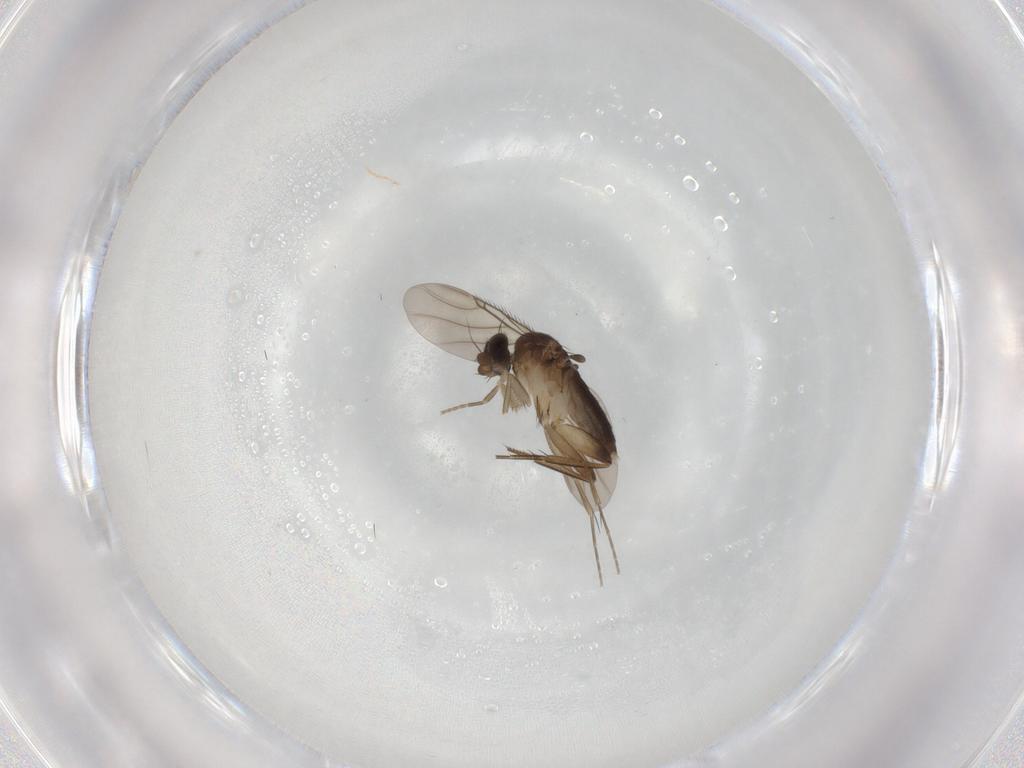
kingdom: Animalia
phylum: Arthropoda
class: Insecta
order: Diptera
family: Phoridae
